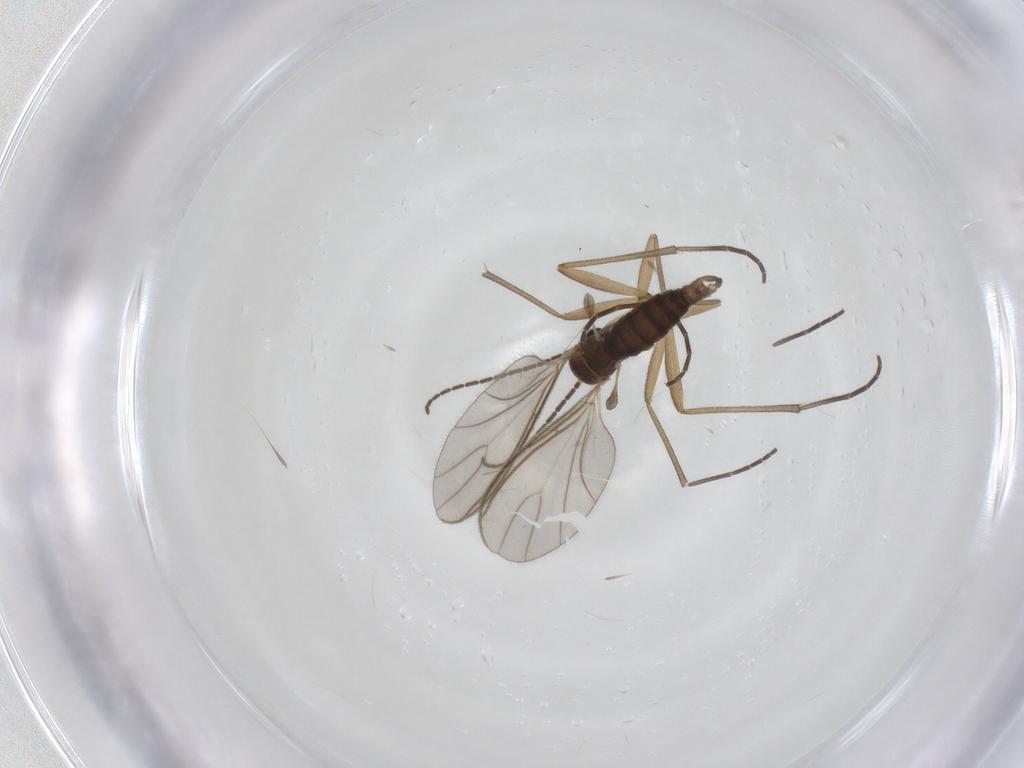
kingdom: Animalia
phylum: Arthropoda
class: Insecta
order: Diptera
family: Sciaridae
